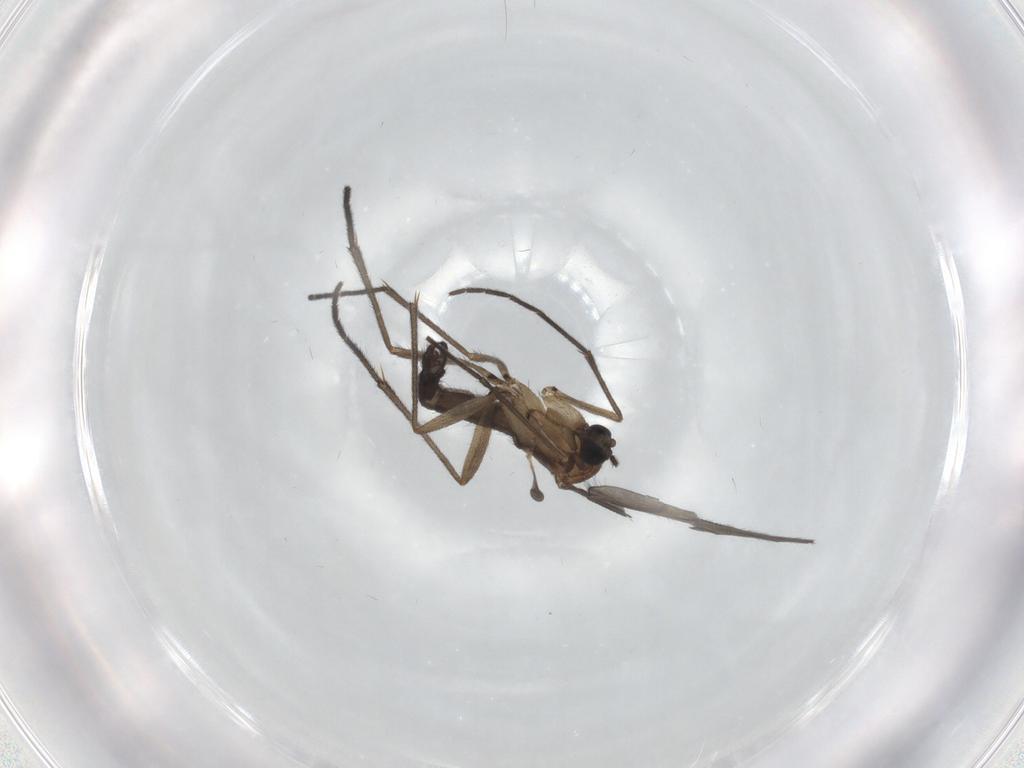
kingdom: Animalia
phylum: Arthropoda
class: Insecta
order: Diptera
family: Sciaridae
